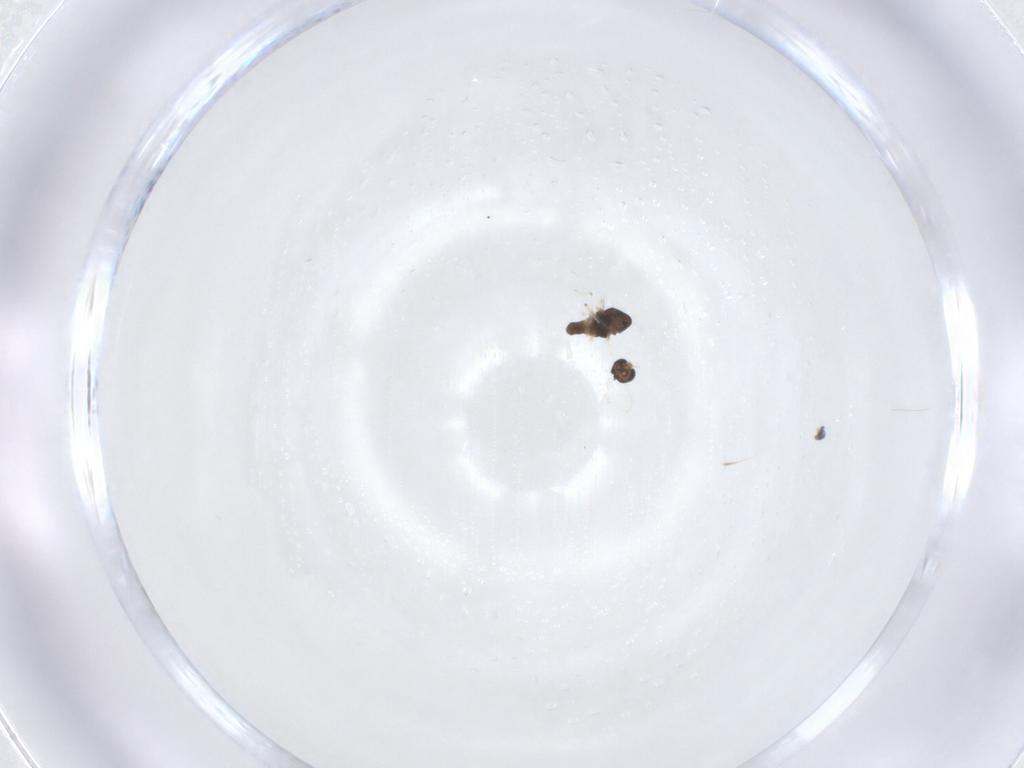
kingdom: Animalia
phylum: Arthropoda
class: Insecta
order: Diptera
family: Chironomidae
